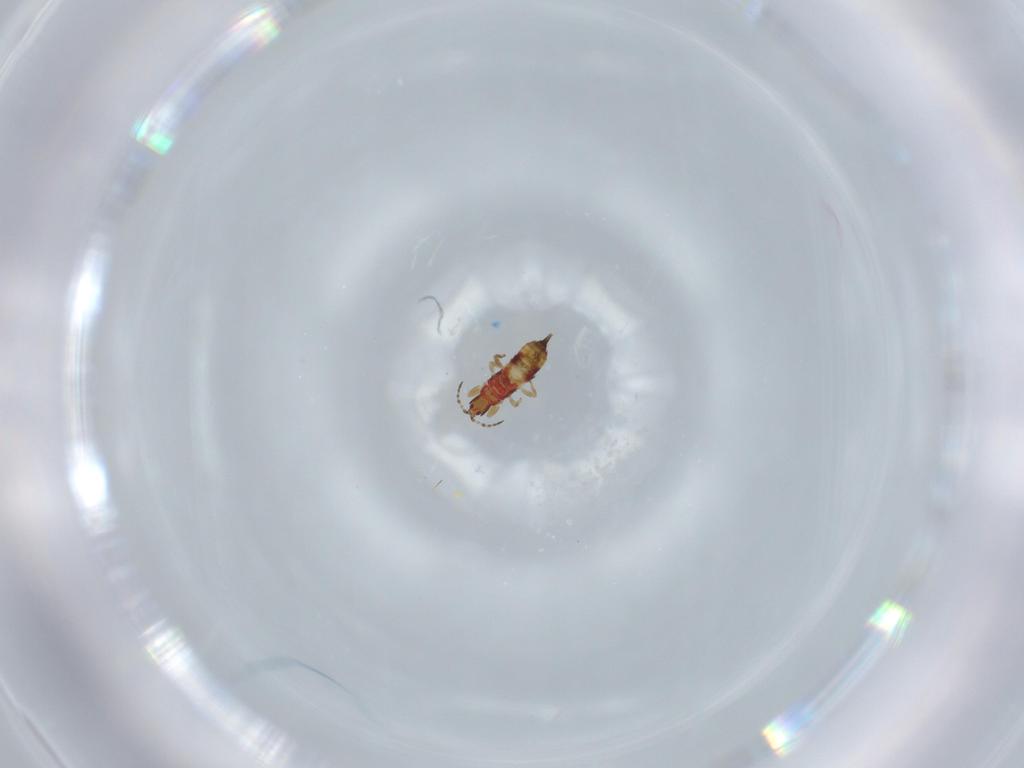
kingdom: Animalia
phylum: Arthropoda
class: Insecta
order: Thysanoptera
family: Phlaeothripidae
